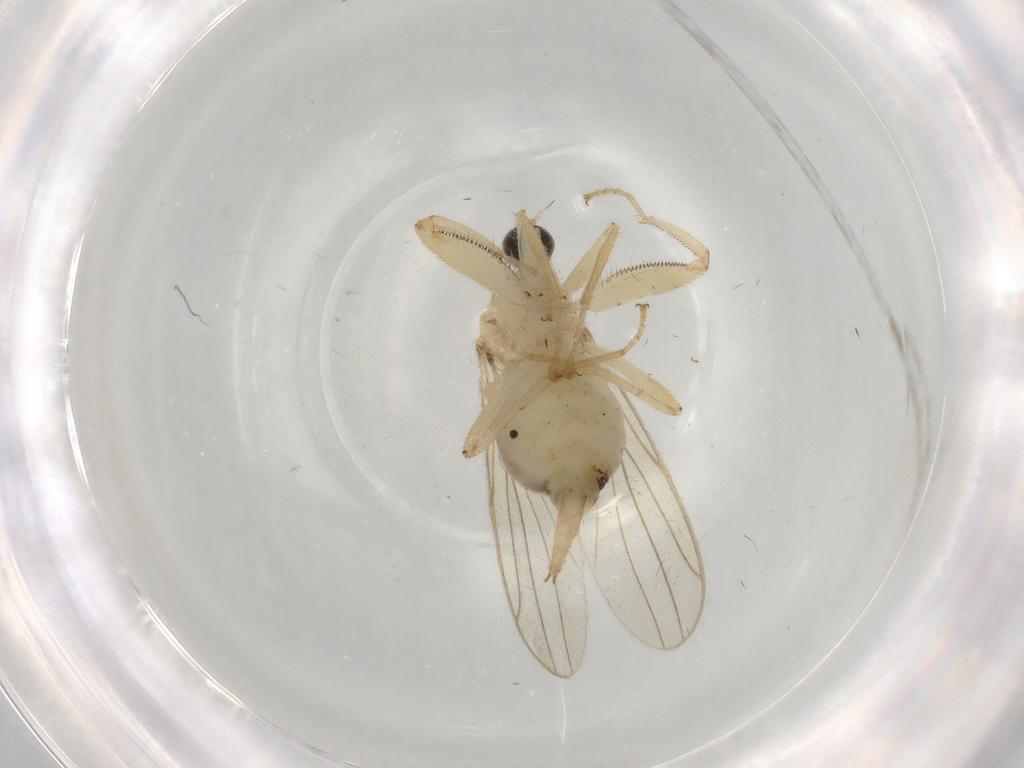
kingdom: Animalia
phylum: Arthropoda
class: Insecta
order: Diptera
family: Hybotidae
